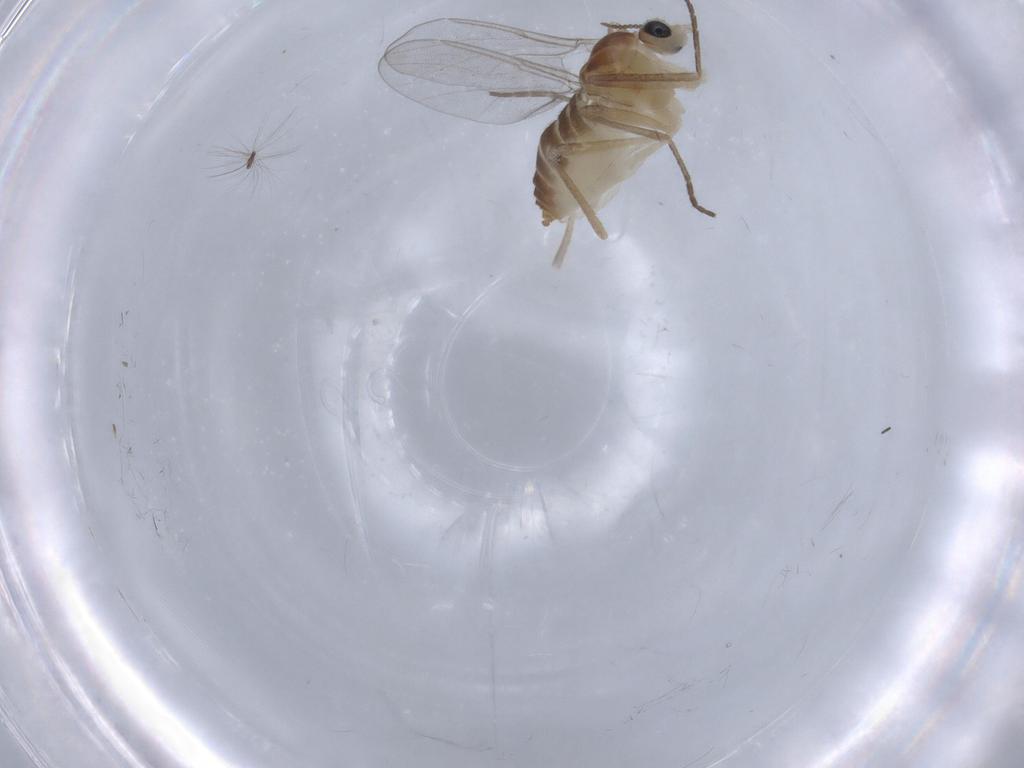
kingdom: Animalia
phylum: Arthropoda
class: Insecta
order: Diptera
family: Cecidomyiidae
